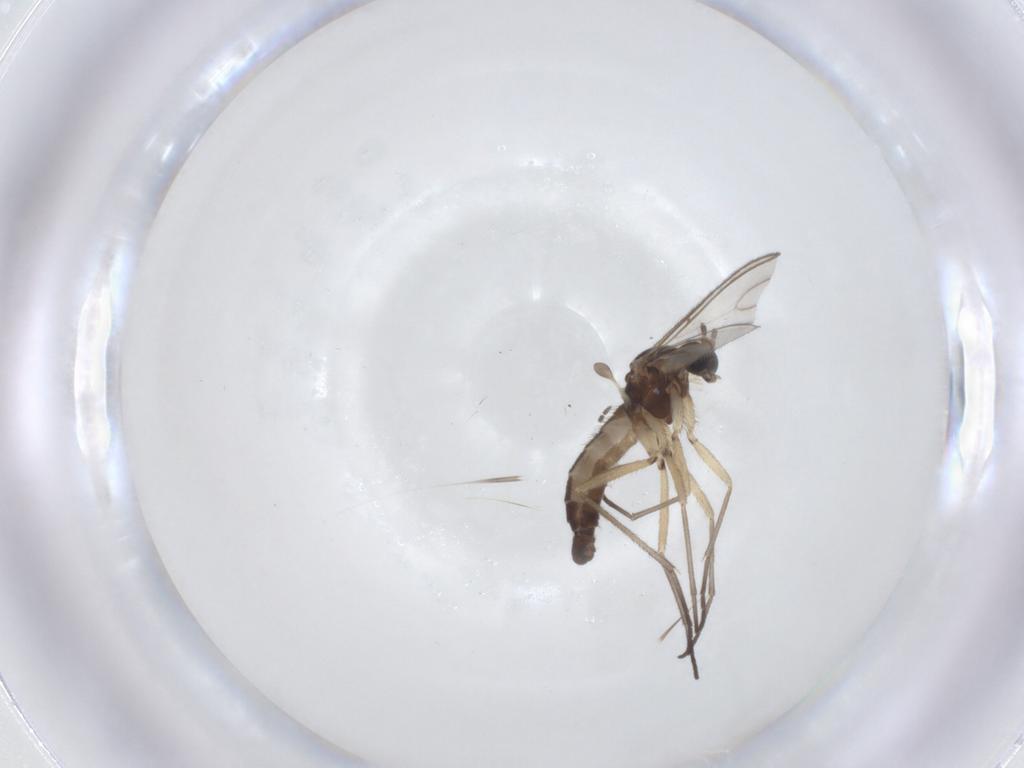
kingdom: Animalia
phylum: Arthropoda
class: Insecta
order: Diptera
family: Sciaridae
